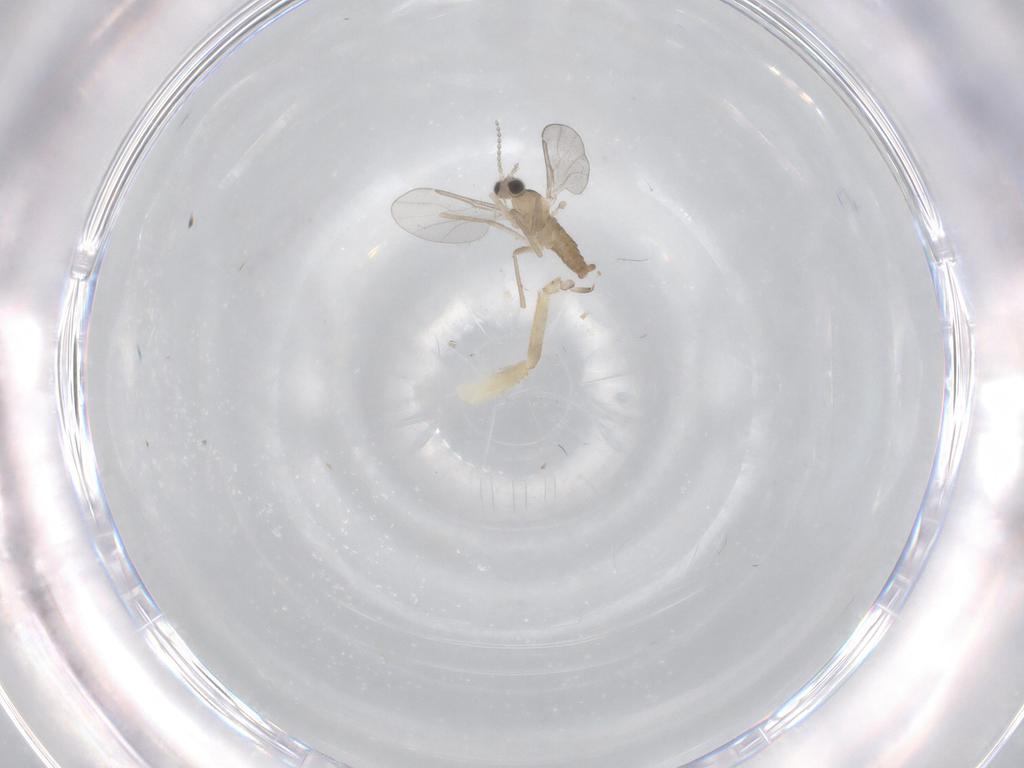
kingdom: Animalia
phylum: Arthropoda
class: Insecta
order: Diptera
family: Chironomidae
